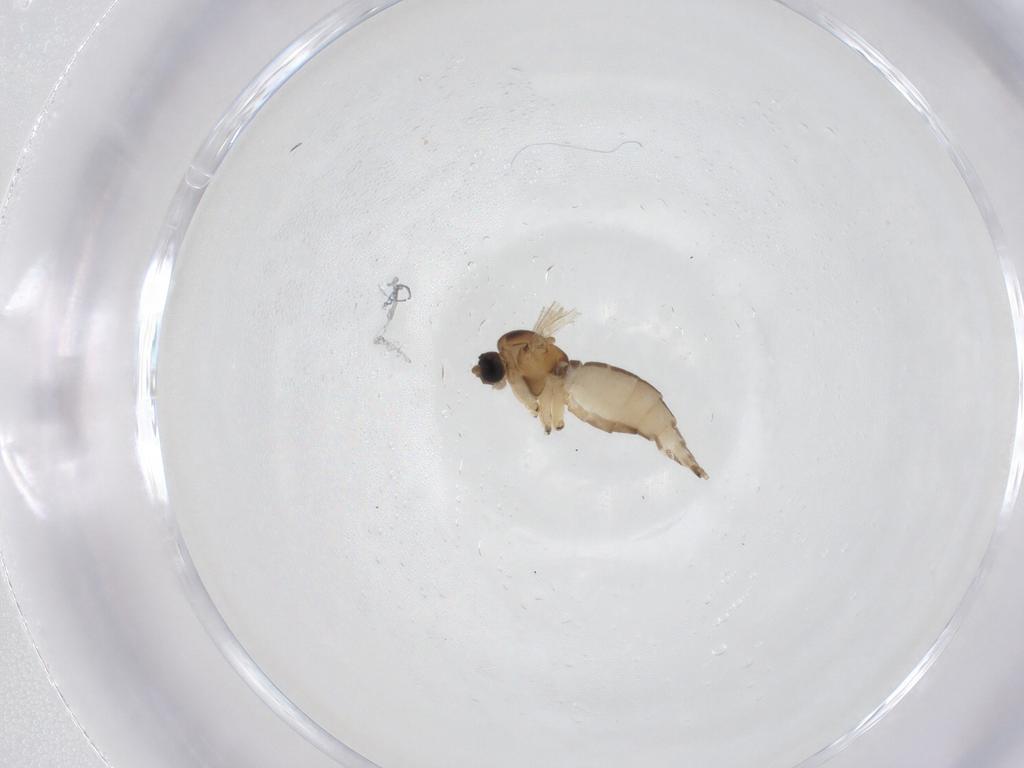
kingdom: Animalia
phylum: Arthropoda
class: Insecta
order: Diptera
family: Sciaridae
